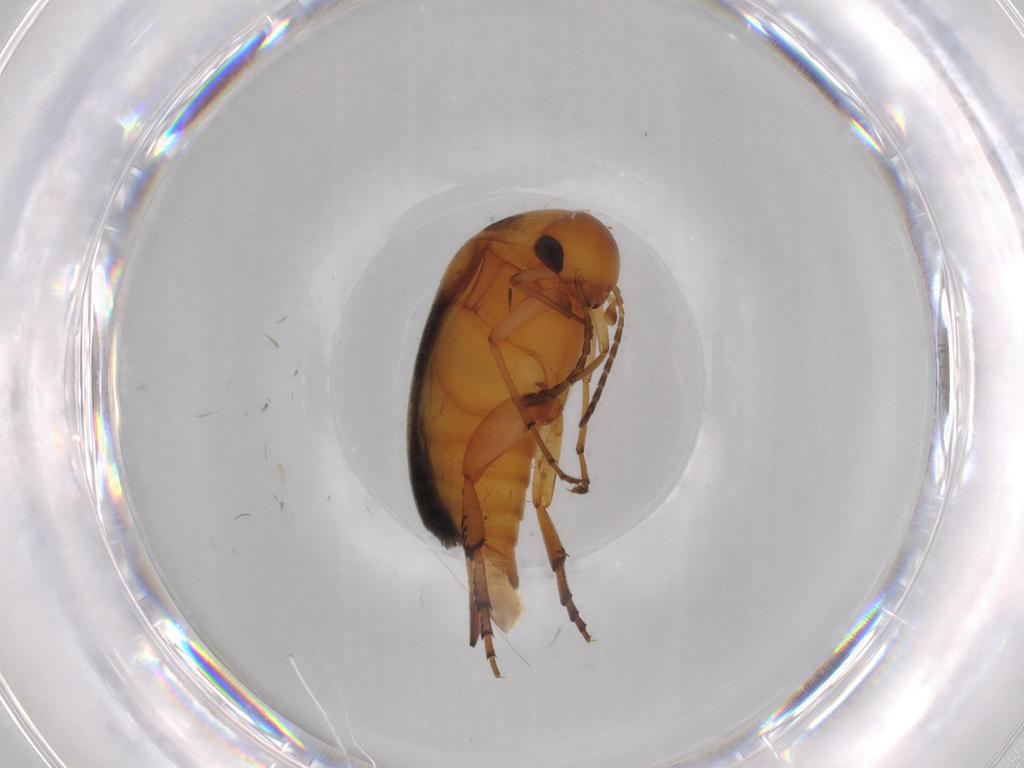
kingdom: Animalia
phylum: Arthropoda
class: Insecta
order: Coleoptera
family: Mordellidae
